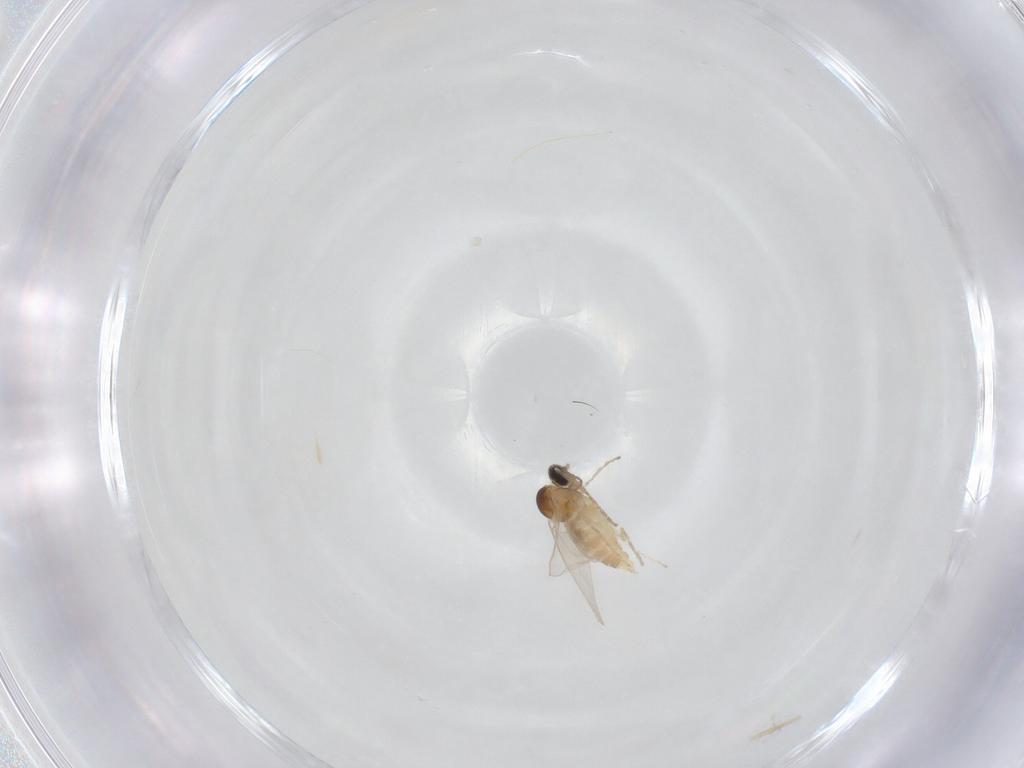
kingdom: Animalia
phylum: Arthropoda
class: Insecta
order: Diptera
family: Cecidomyiidae
